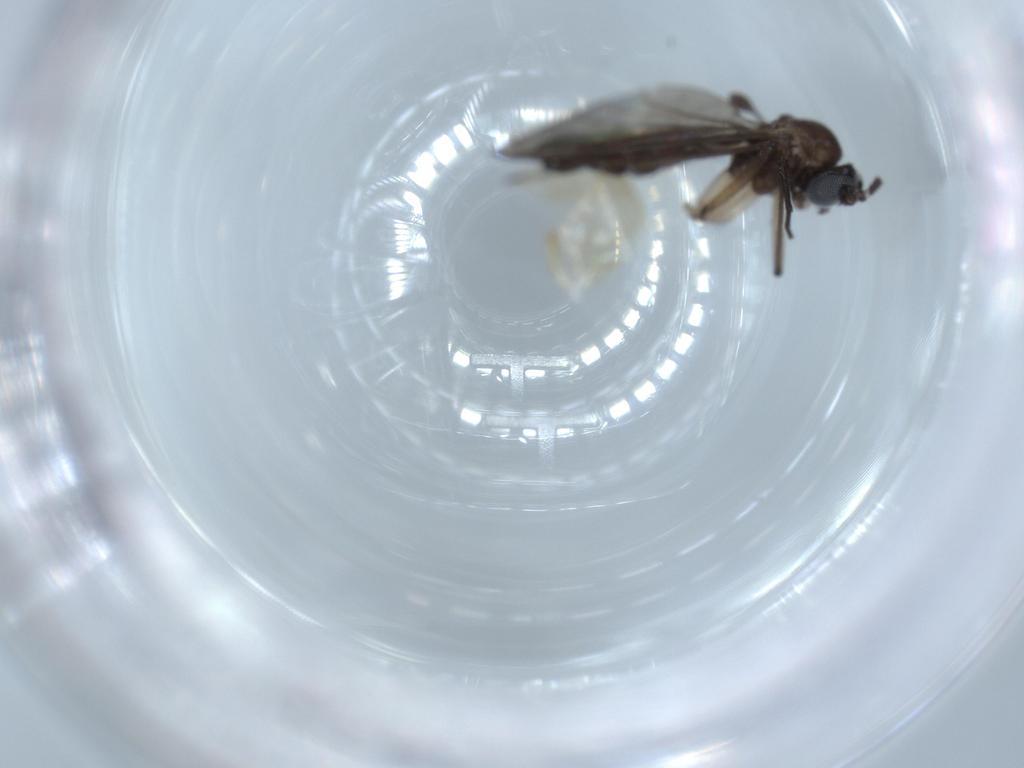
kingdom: Animalia
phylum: Arthropoda
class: Insecta
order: Diptera
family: Sciaridae
